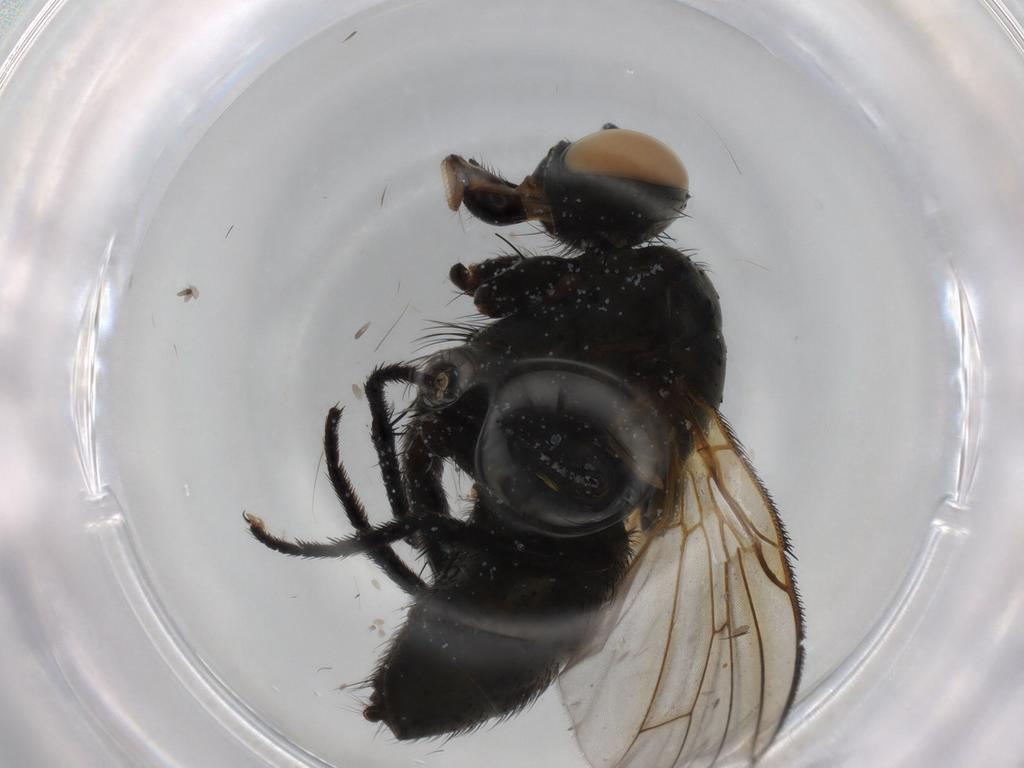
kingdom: Animalia
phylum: Arthropoda
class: Insecta
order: Diptera
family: Muscidae
